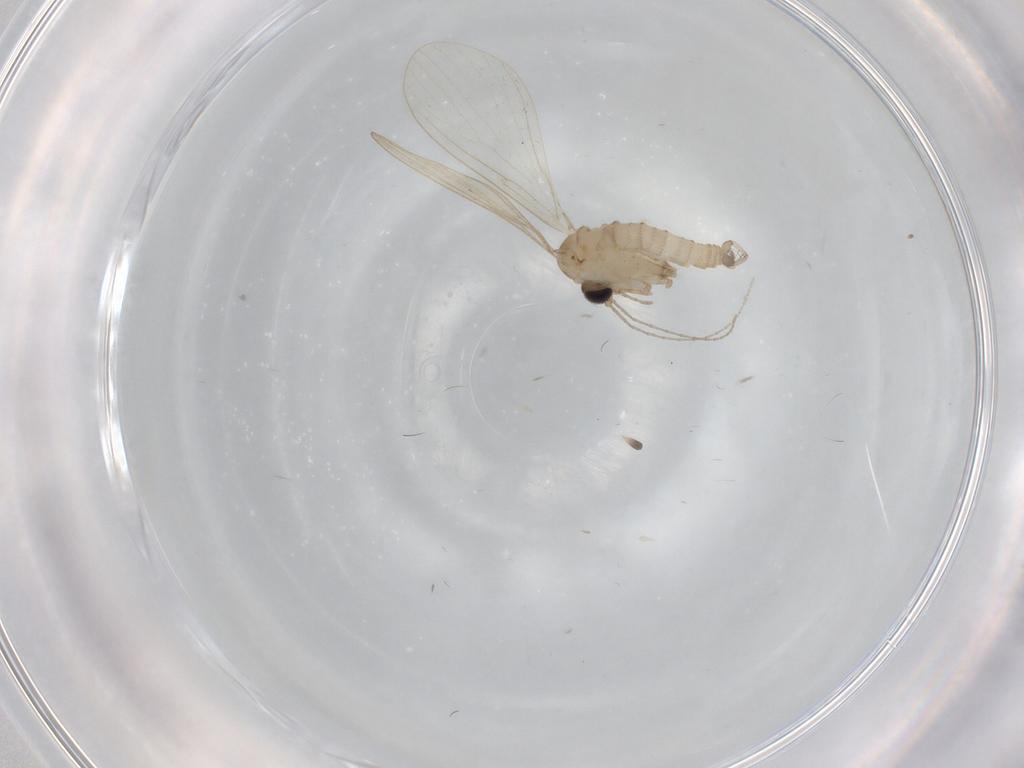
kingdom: Animalia
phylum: Arthropoda
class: Insecta
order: Diptera
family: Psychodidae
